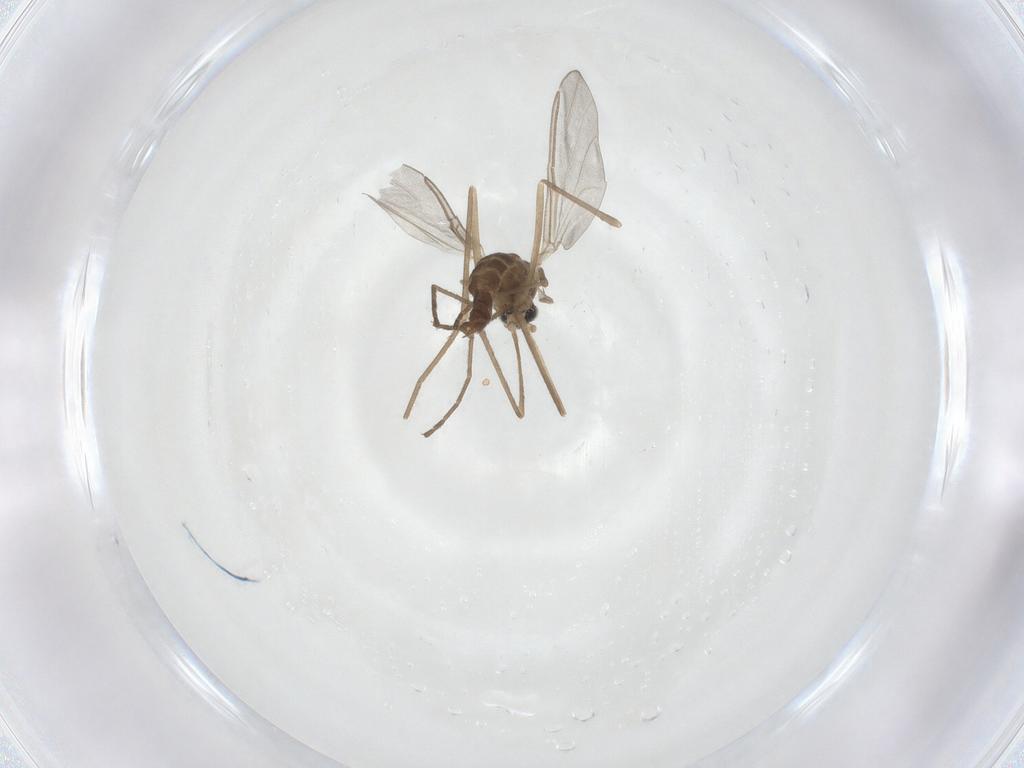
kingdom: Animalia
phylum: Arthropoda
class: Insecta
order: Diptera
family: Cecidomyiidae
